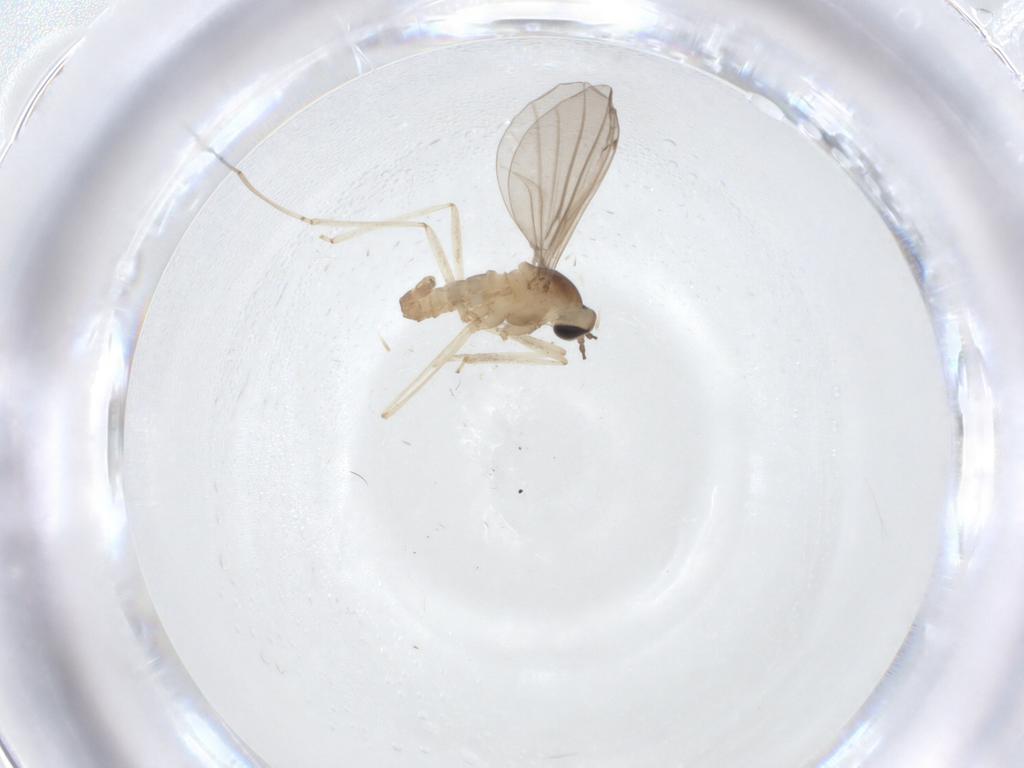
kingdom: Animalia
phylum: Arthropoda
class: Insecta
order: Diptera
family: Cecidomyiidae
